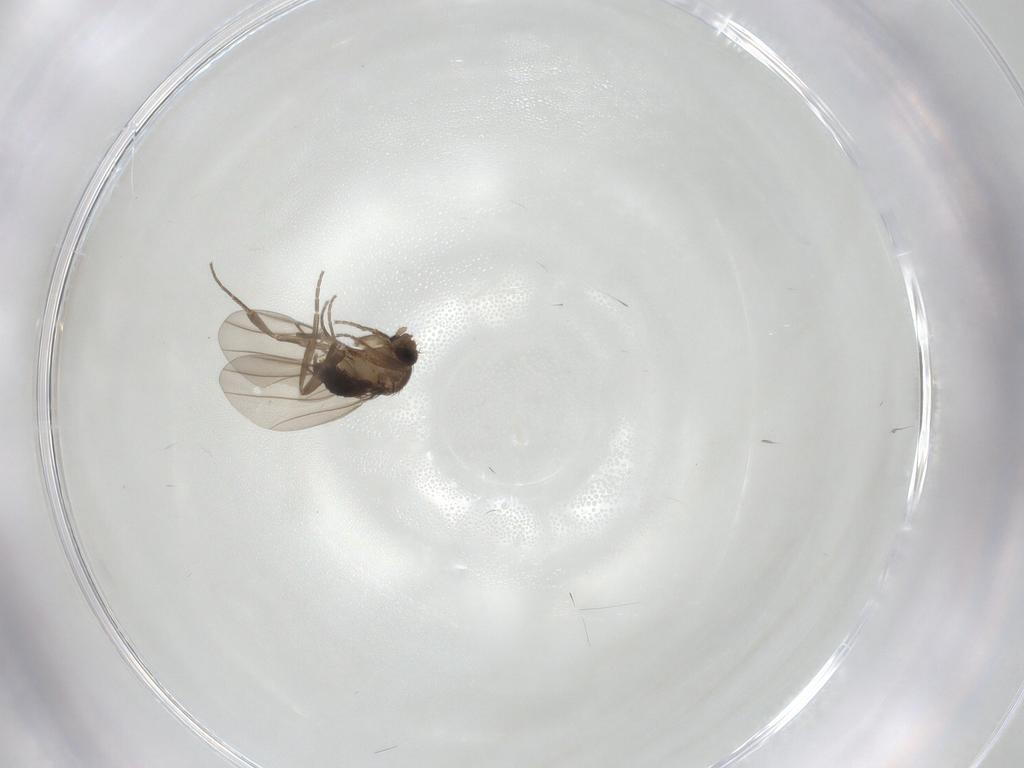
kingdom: Animalia
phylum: Arthropoda
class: Insecta
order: Diptera
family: Phoridae
